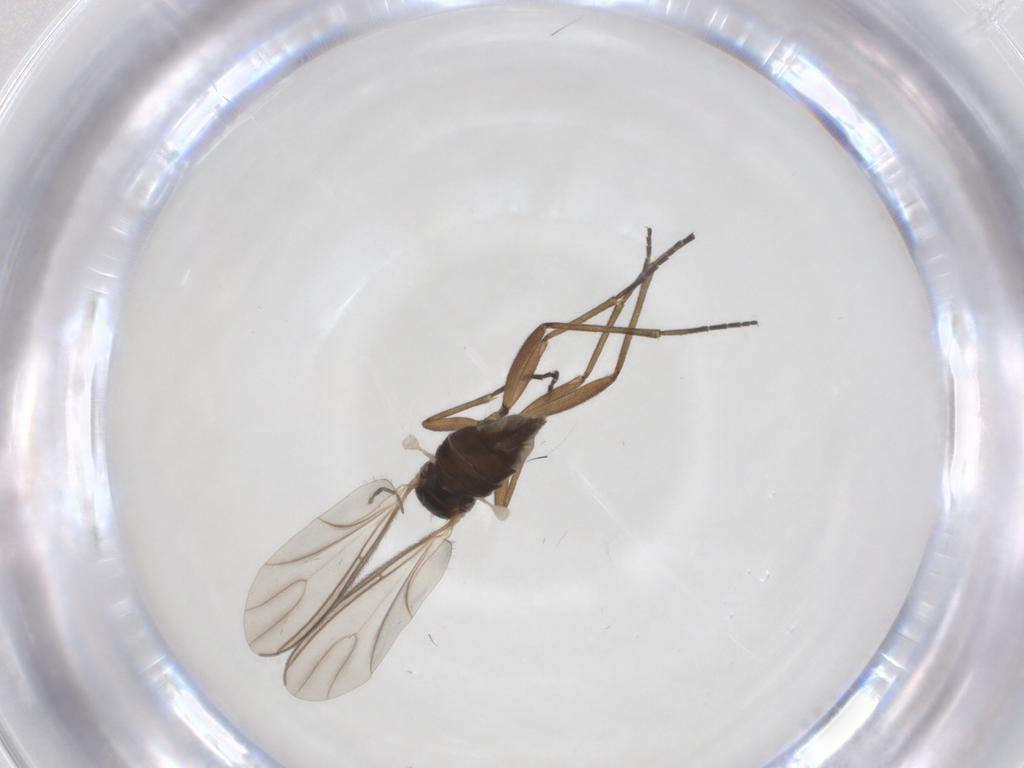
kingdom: Animalia
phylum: Arthropoda
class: Insecta
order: Diptera
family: Chironomidae
